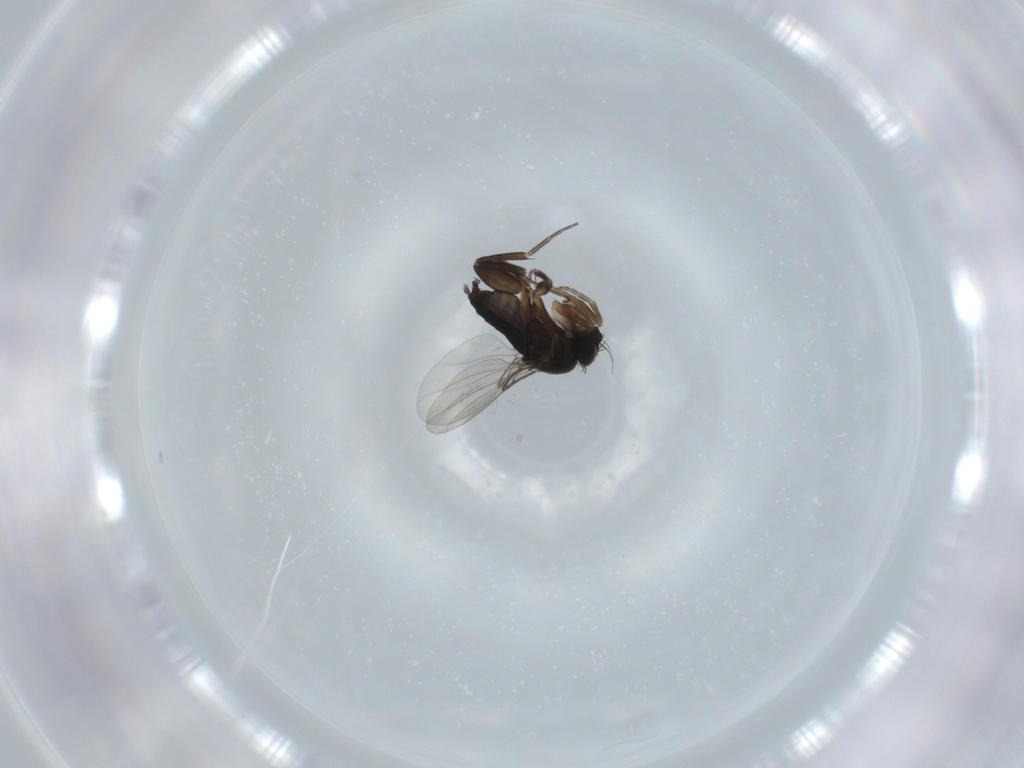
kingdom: Animalia
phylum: Arthropoda
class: Insecta
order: Diptera
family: Phoridae
